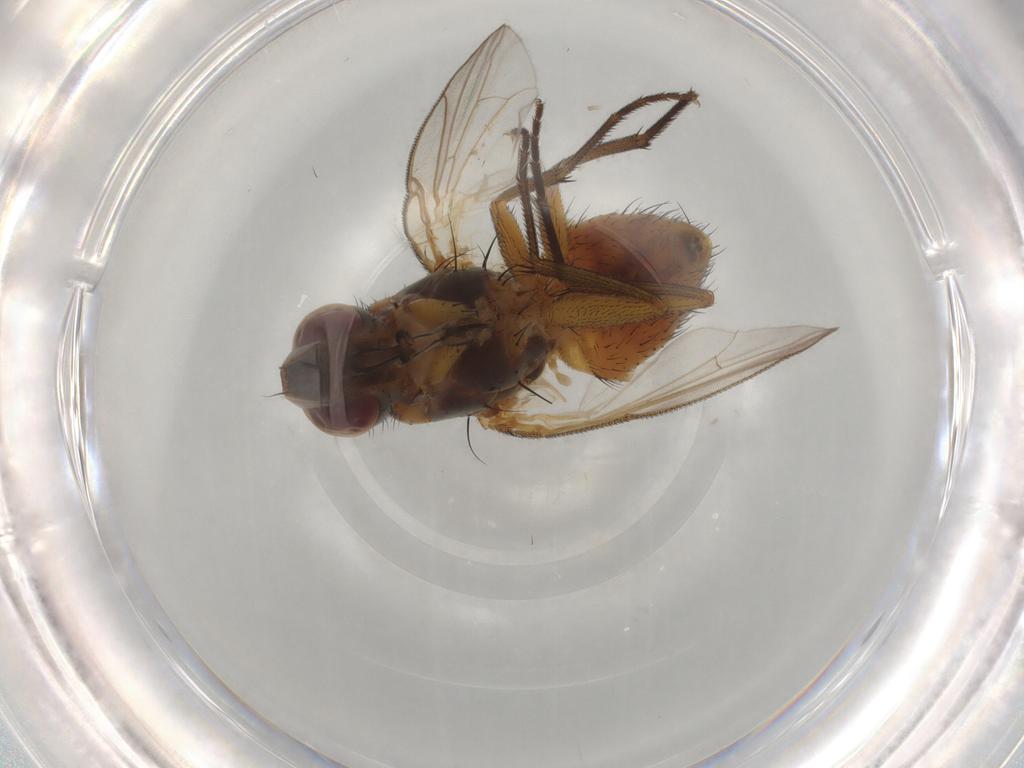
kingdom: Animalia
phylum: Arthropoda
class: Insecta
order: Diptera
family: Muscidae
